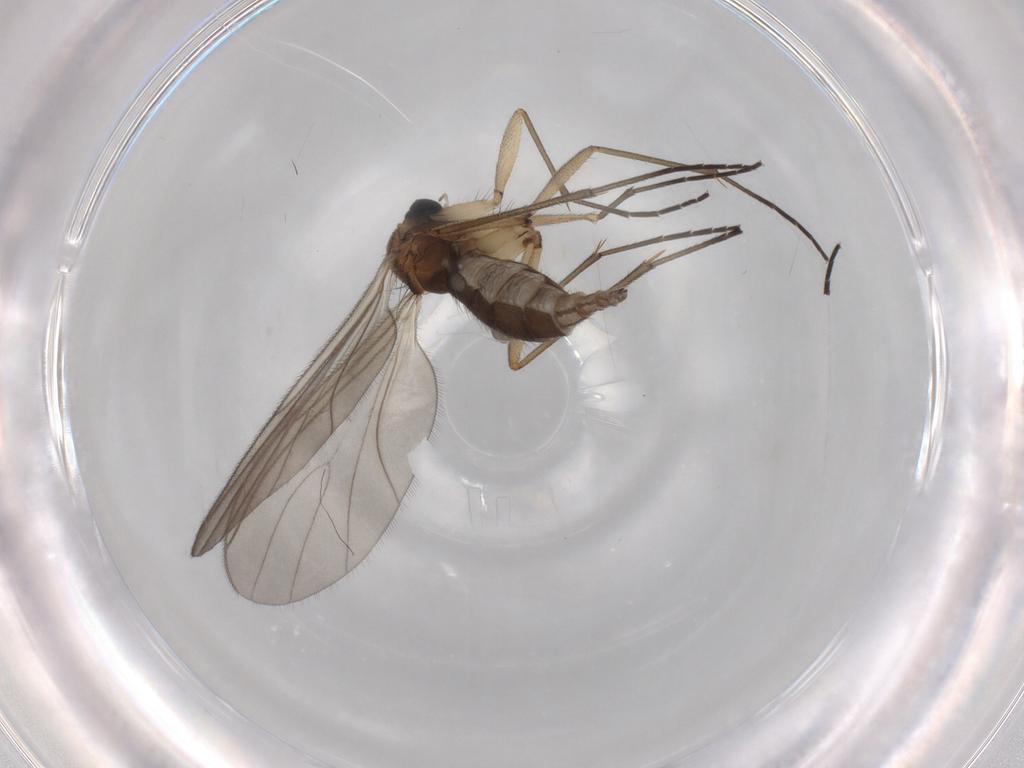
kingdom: Animalia
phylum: Arthropoda
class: Insecta
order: Diptera
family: Sciaridae
